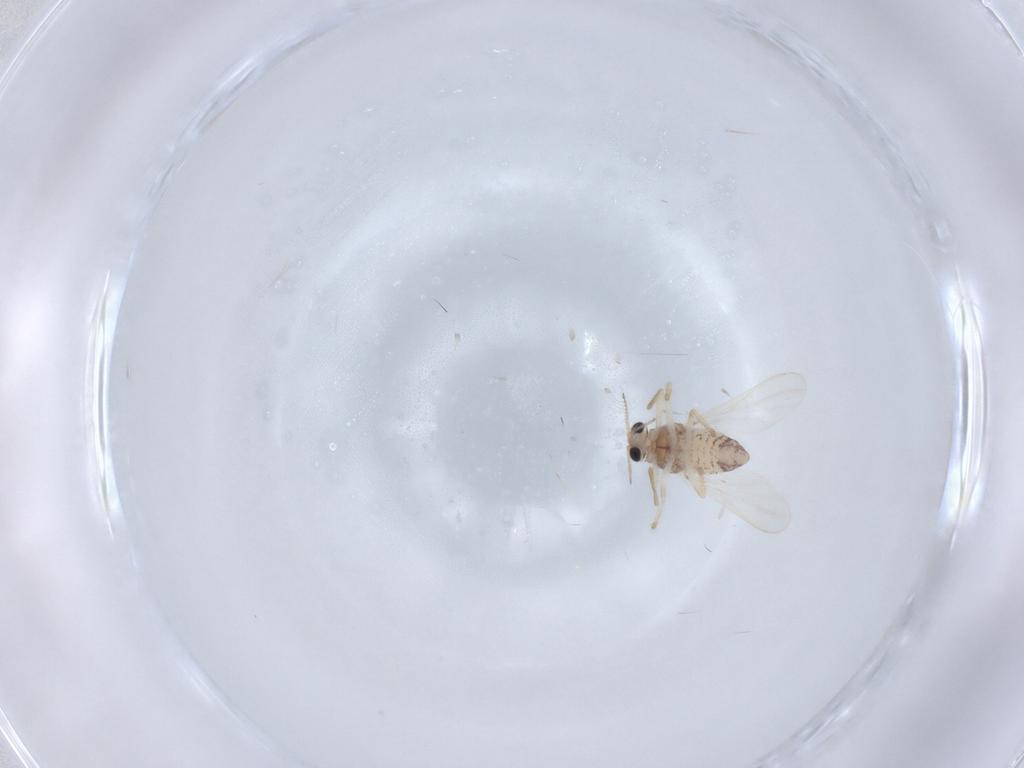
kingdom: Animalia
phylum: Arthropoda
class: Insecta
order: Diptera
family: Chironomidae
